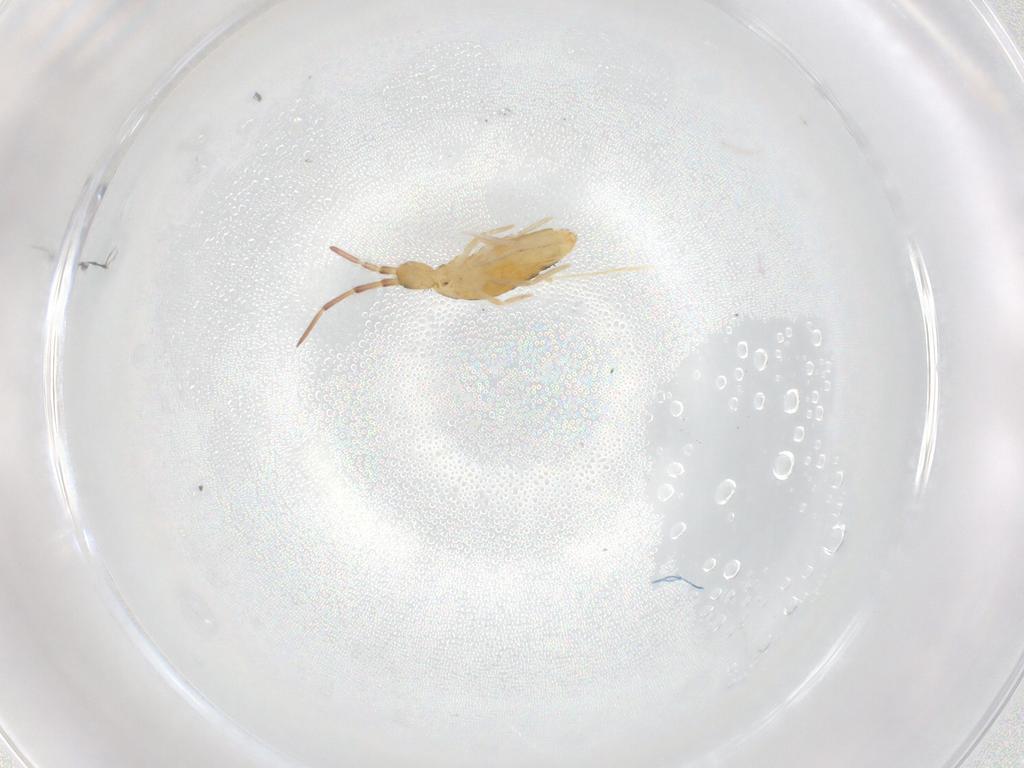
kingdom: Animalia
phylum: Arthropoda
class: Collembola
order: Entomobryomorpha
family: Entomobryidae
